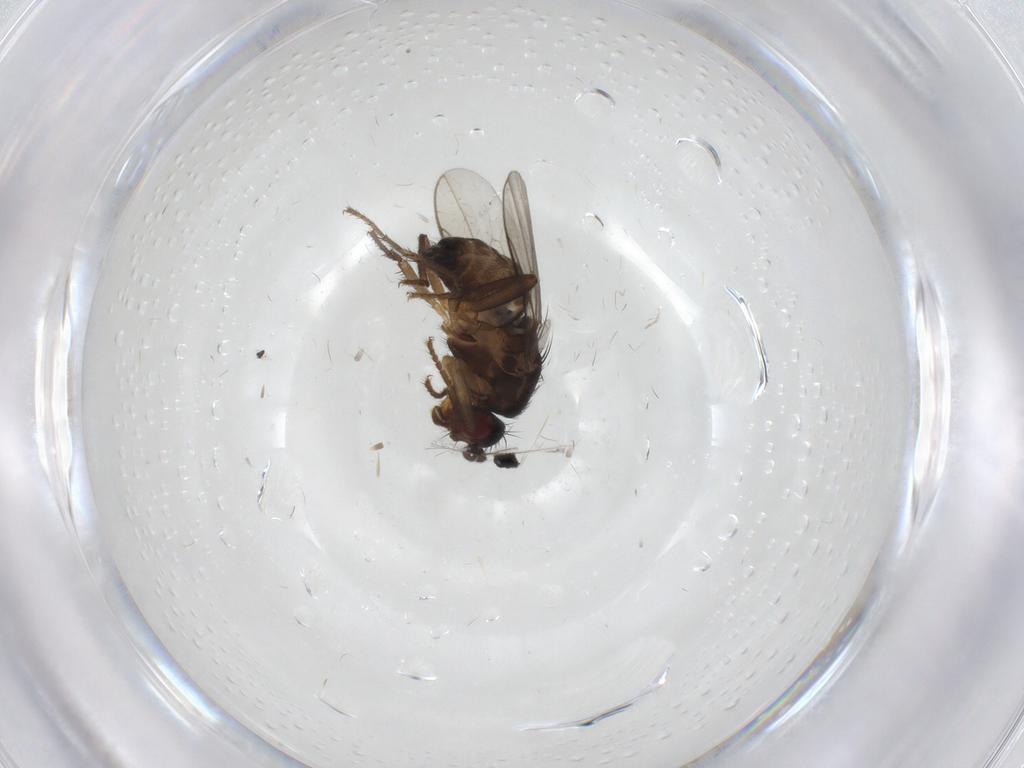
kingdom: Animalia
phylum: Arthropoda
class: Insecta
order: Diptera
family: Sphaeroceridae
